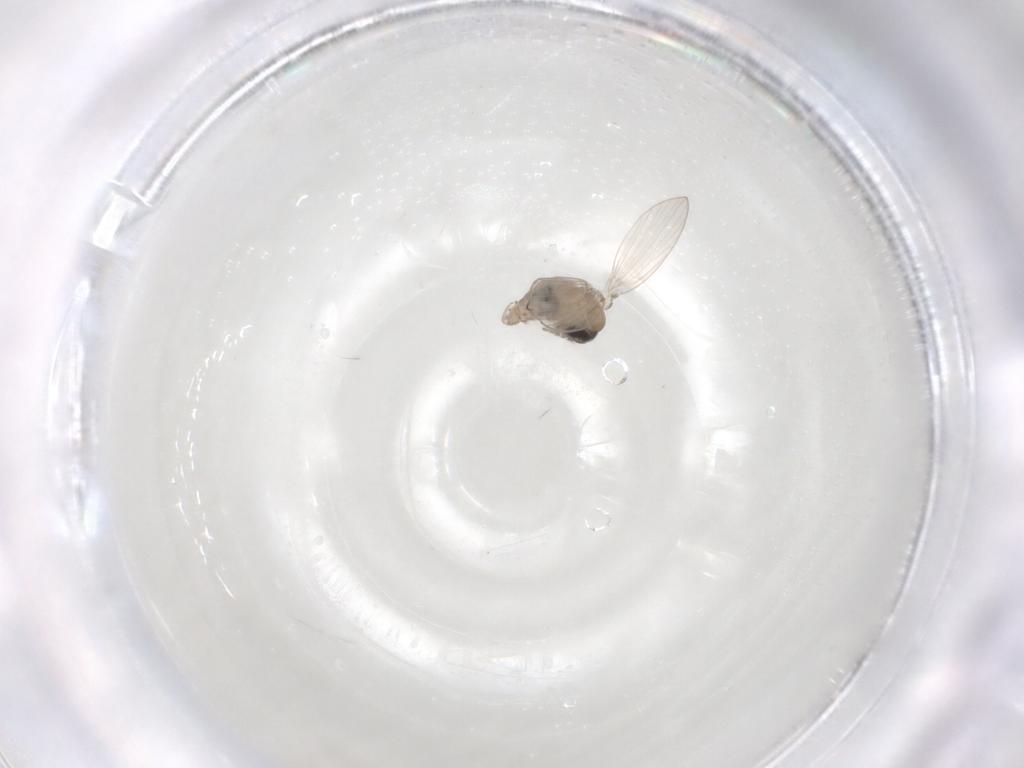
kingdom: Animalia
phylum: Arthropoda
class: Insecta
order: Diptera
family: Psychodidae
